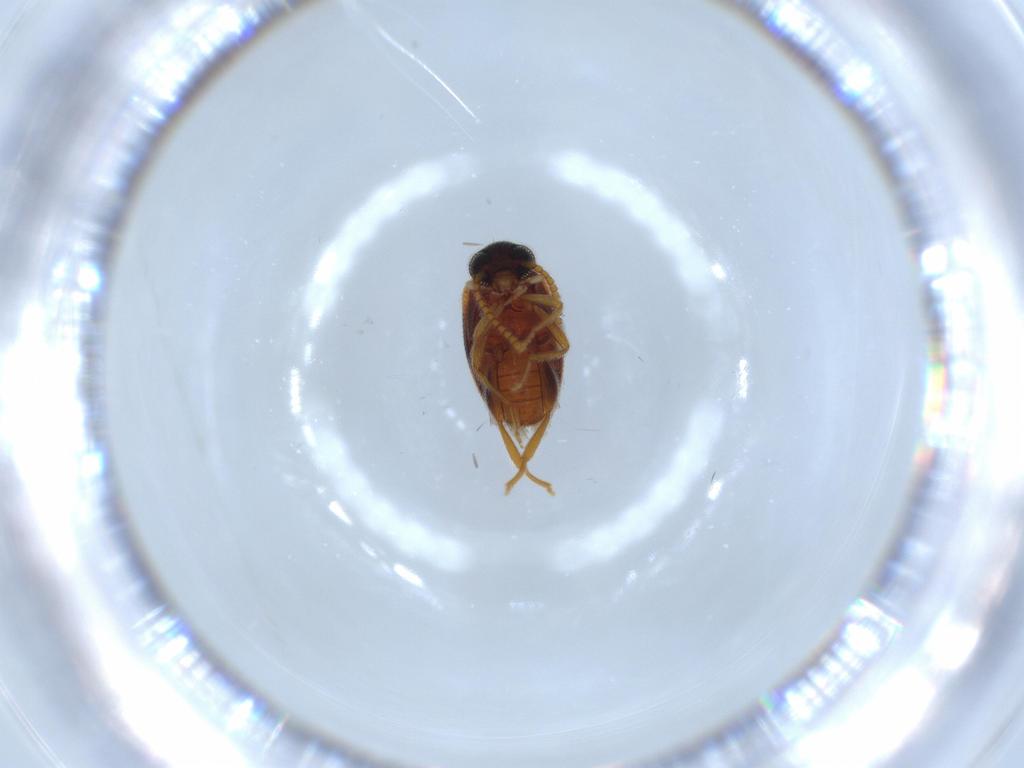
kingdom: Animalia
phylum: Arthropoda
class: Insecta
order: Coleoptera
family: Aderidae
